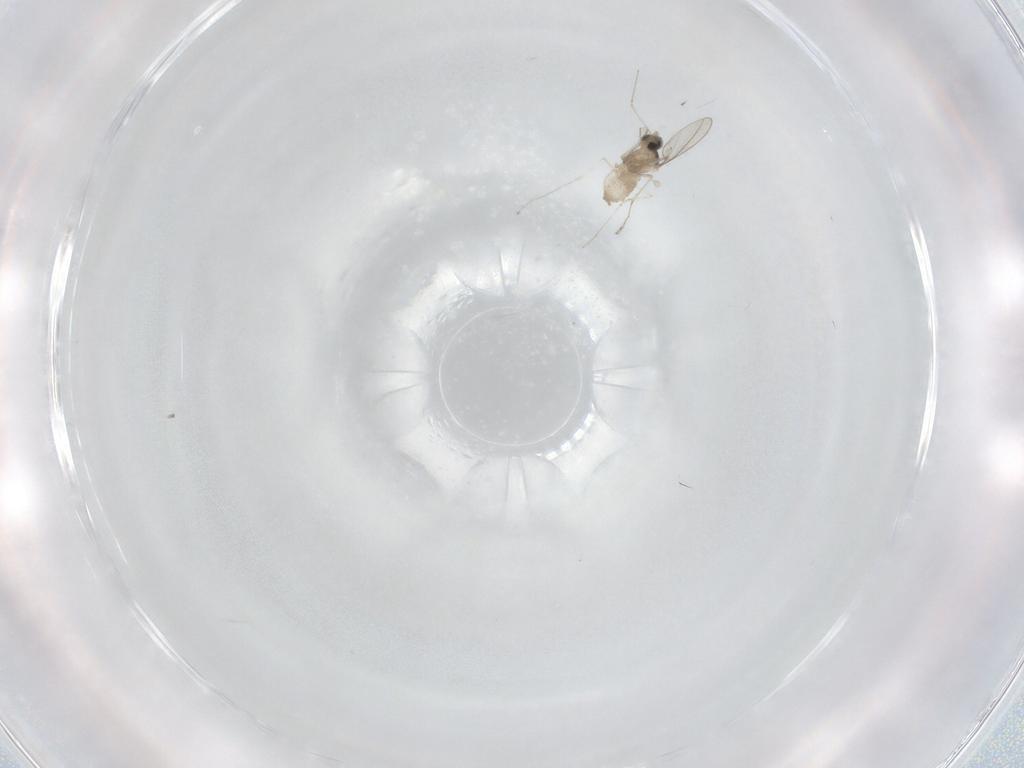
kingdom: Animalia
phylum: Arthropoda
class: Insecta
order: Diptera
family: Cecidomyiidae
